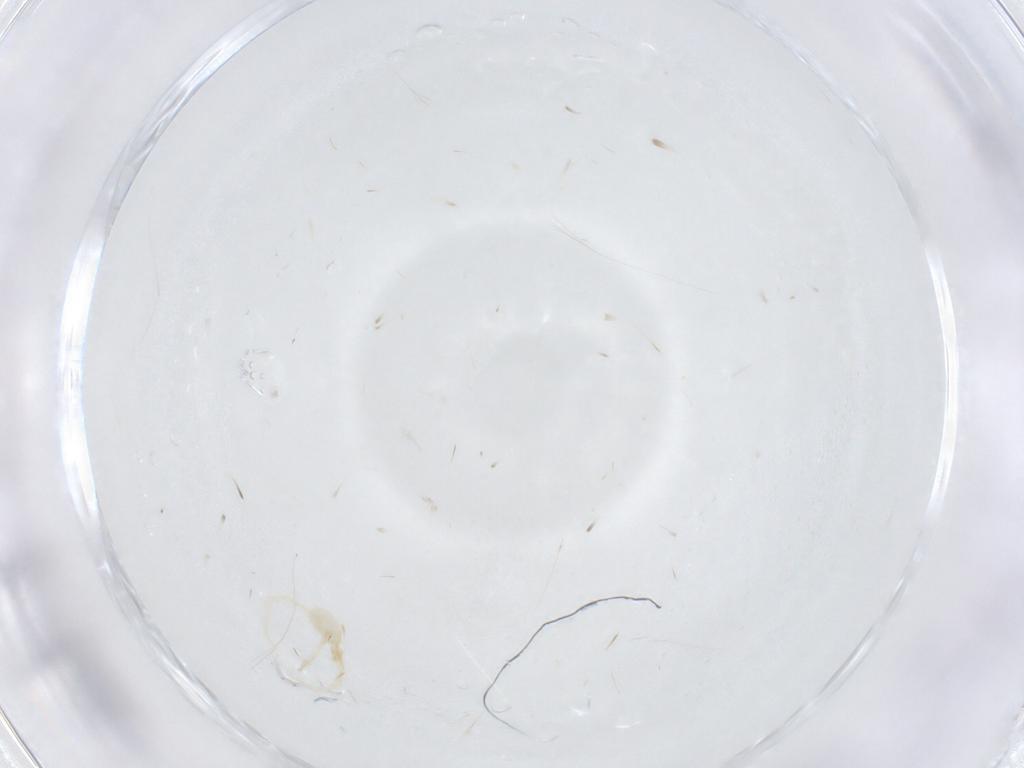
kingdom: Animalia
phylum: Arthropoda
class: Arachnida
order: Trombidiformes
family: Erythraeidae
